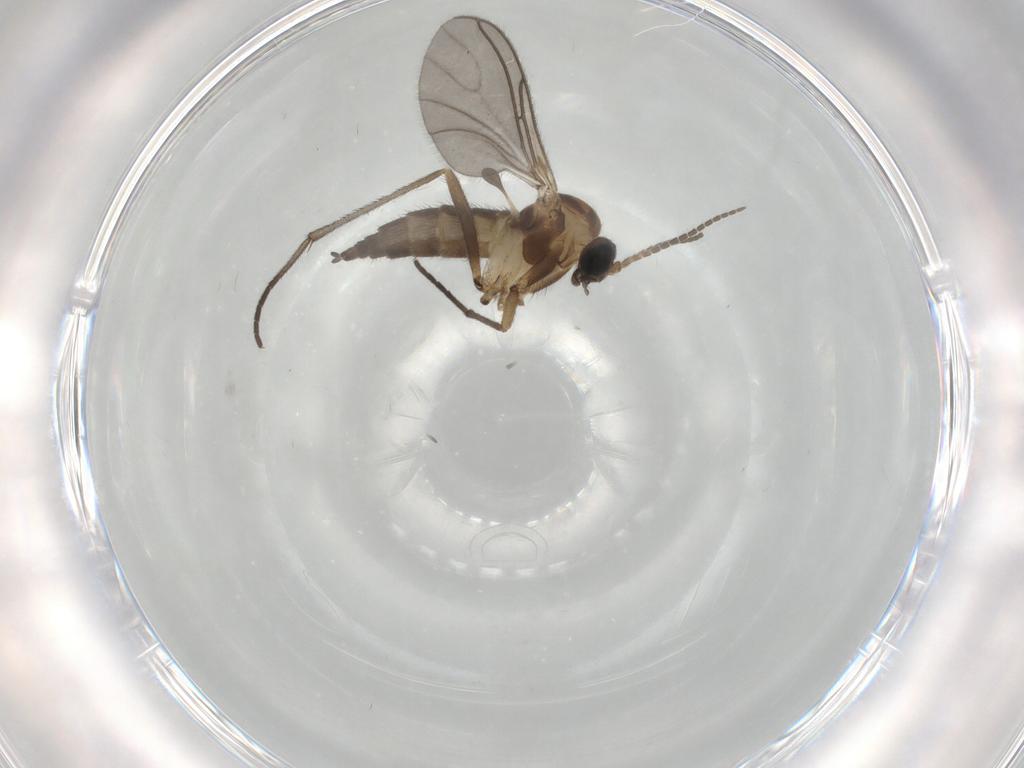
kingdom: Animalia
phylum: Arthropoda
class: Insecta
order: Diptera
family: Sciaridae
